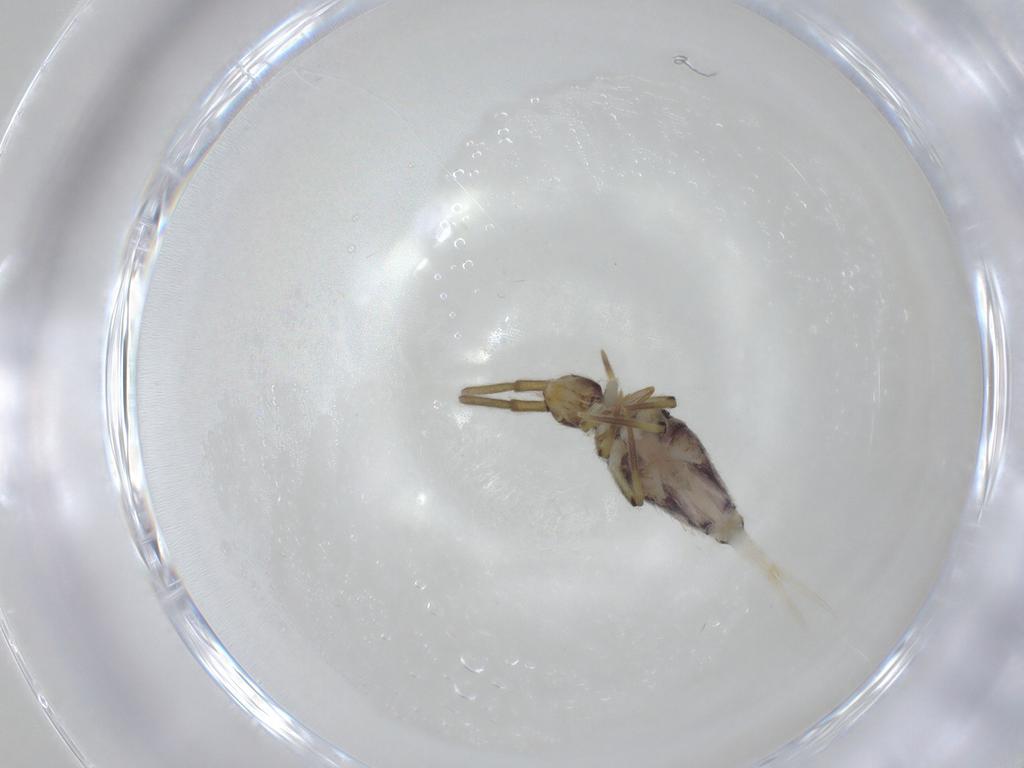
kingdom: Animalia
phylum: Arthropoda
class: Collembola
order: Entomobryomorpha
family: Entomobryidae
